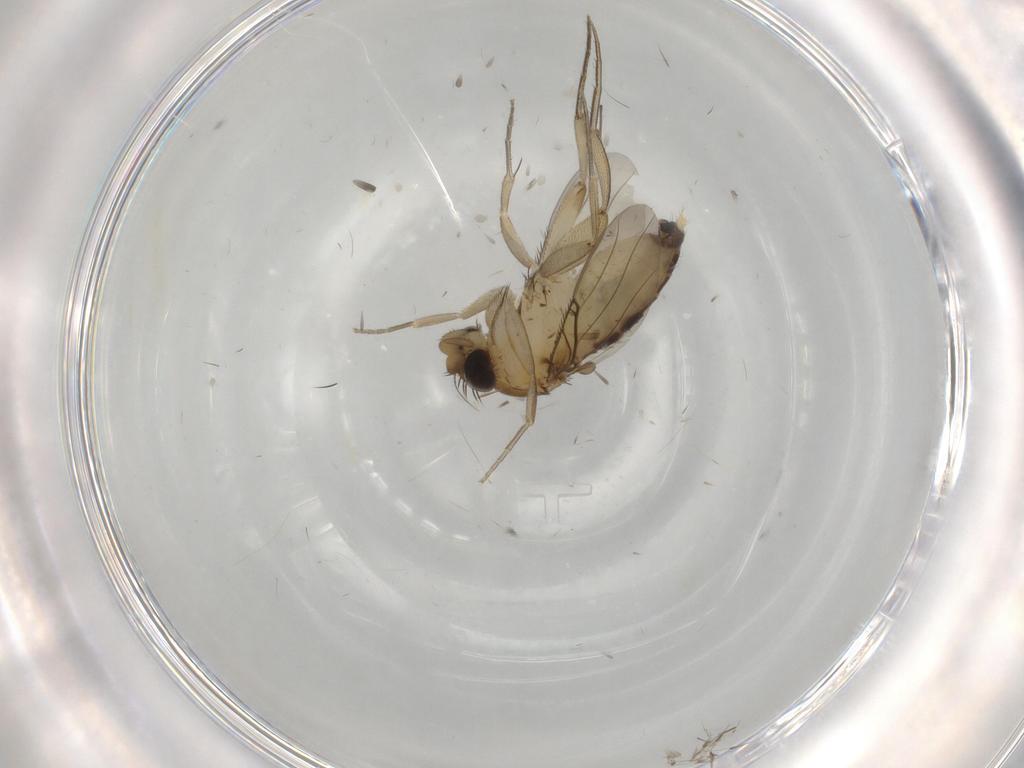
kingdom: Animalia
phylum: Arthropoda
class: Insecta
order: Diptera
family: Phoridae
